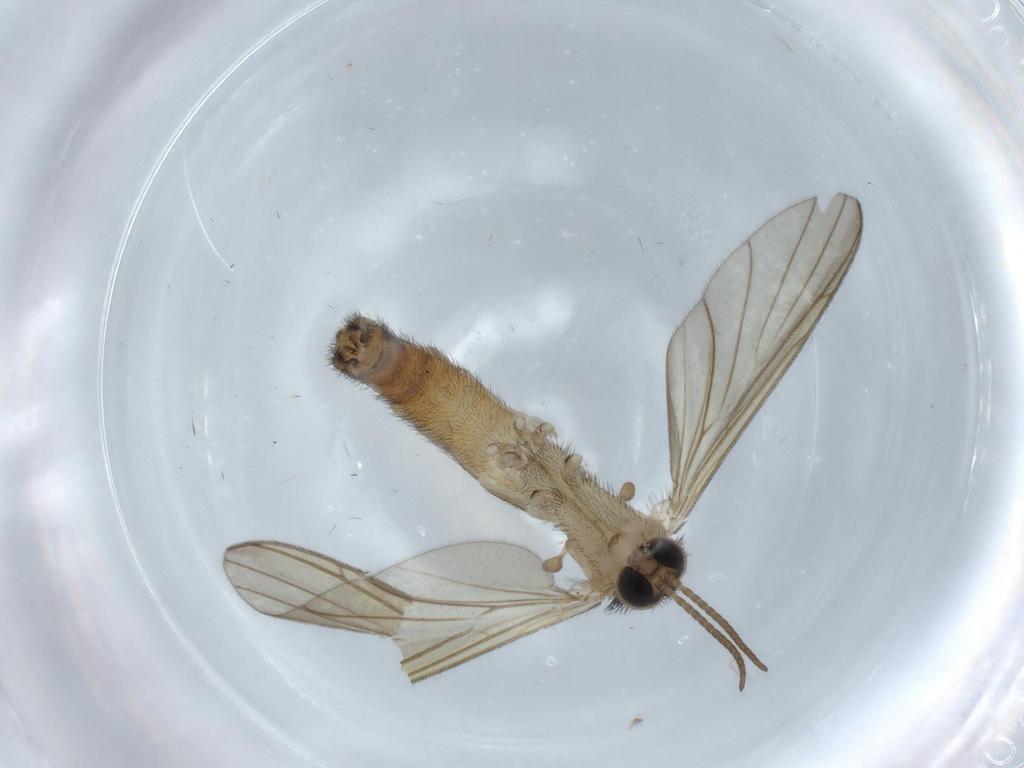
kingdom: Animalia
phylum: Arthropoda
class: Insecta
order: Diptera
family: Keroplatidae
